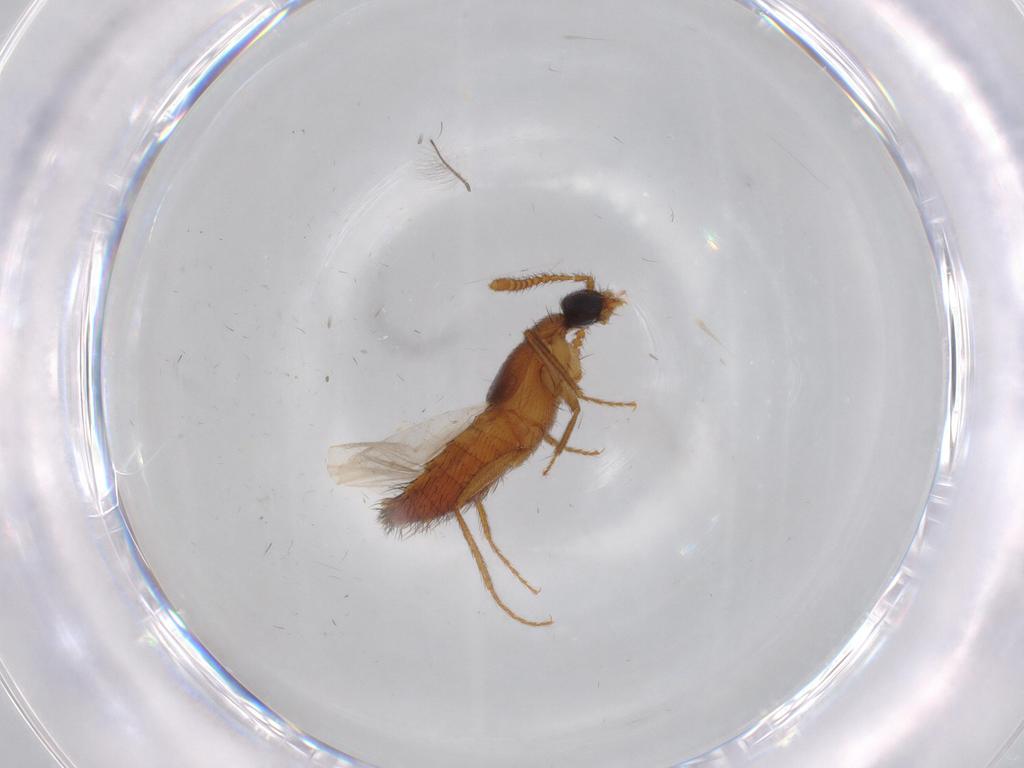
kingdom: Animalia
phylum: Arthropoda
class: Insecta
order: Coleoptera
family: Staphylinidae
